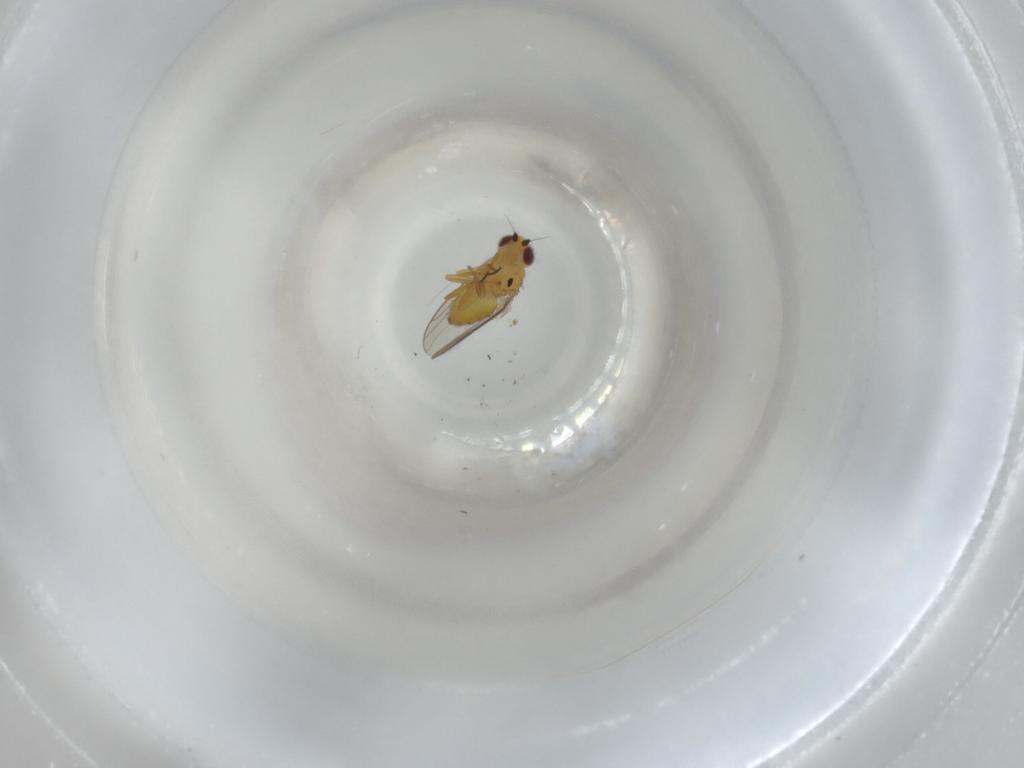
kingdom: Animalia
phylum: Arthropoda
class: Insecta
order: Diptera
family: Chloropidae
